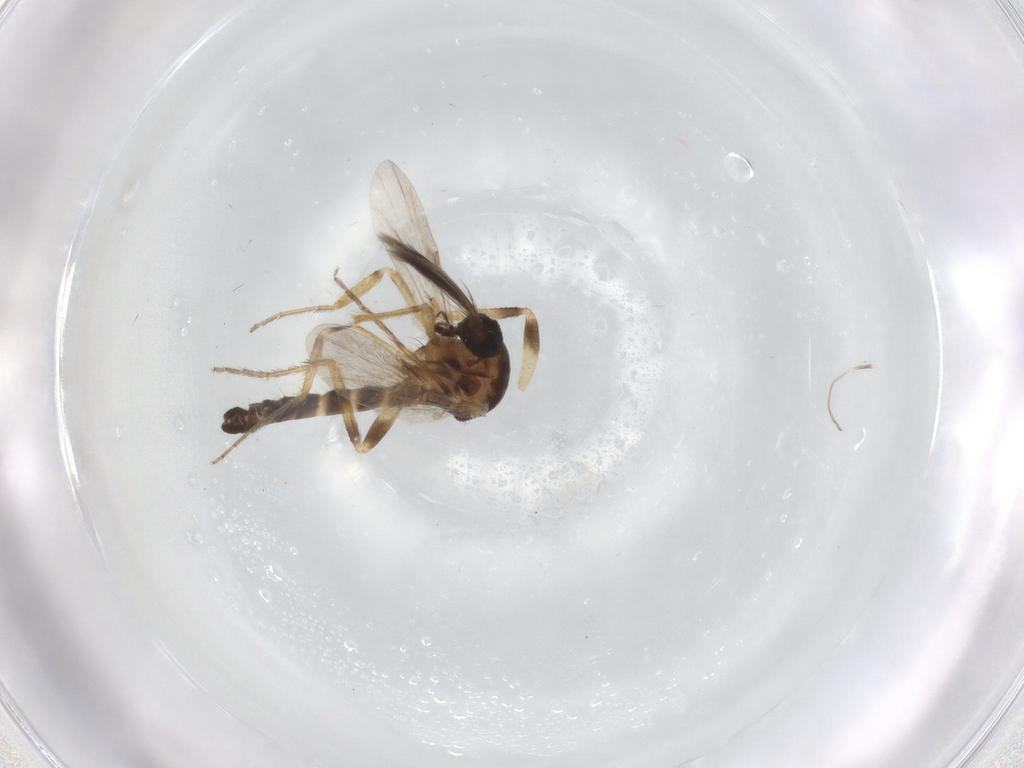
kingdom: Animalia
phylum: Arthropoda
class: Insecta
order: Diptera
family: Ceratopogonidae
